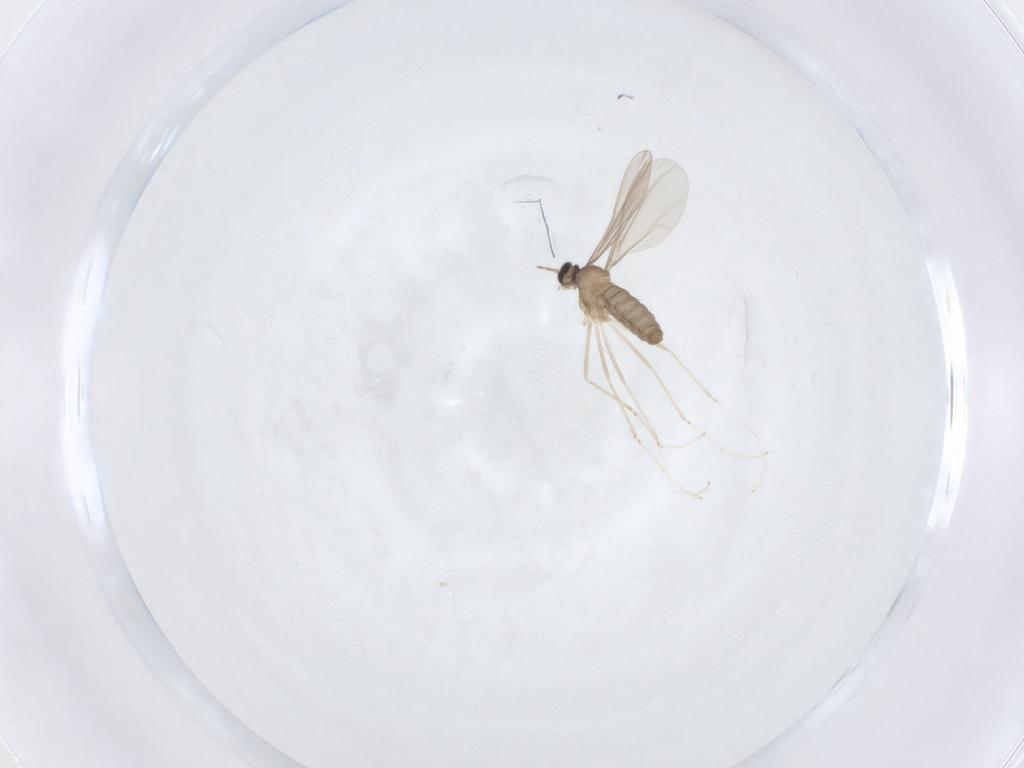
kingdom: Animalia
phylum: Arthropoda
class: Insecta
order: Diptera
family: Cecidomyiidae
